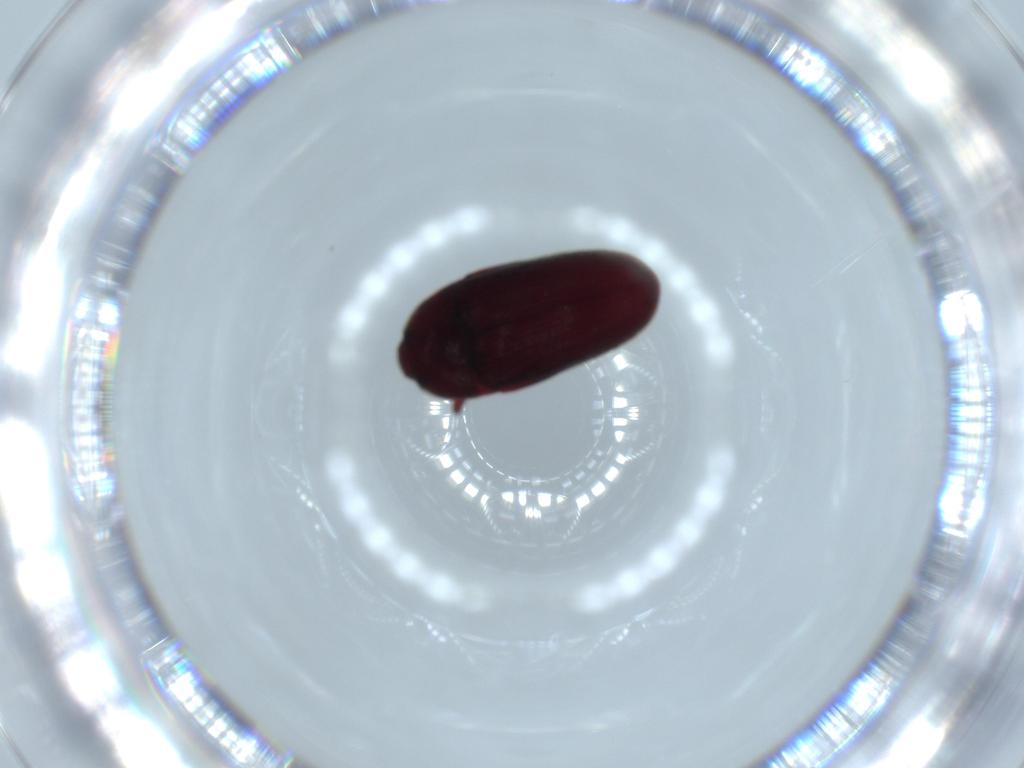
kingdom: Animalia
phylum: Arthropoda
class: Insecta
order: Coleoptera
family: Throscidae
